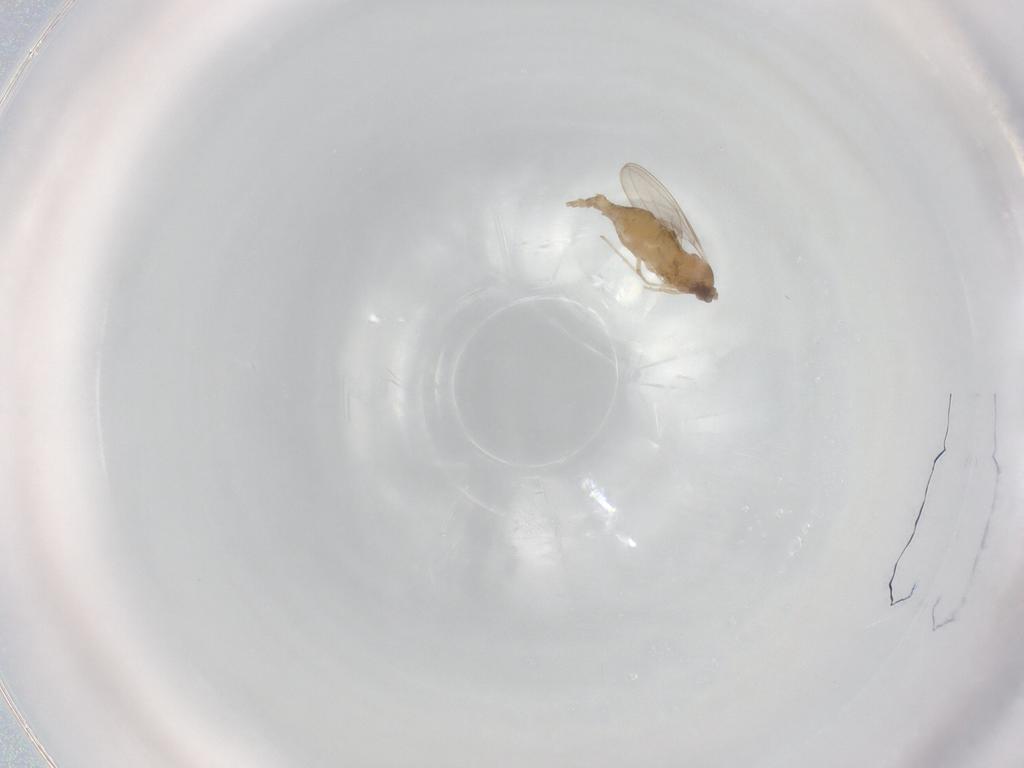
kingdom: Animalia
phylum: Arthropoda
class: Insecta
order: Diptera
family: Cecidomyiidae
